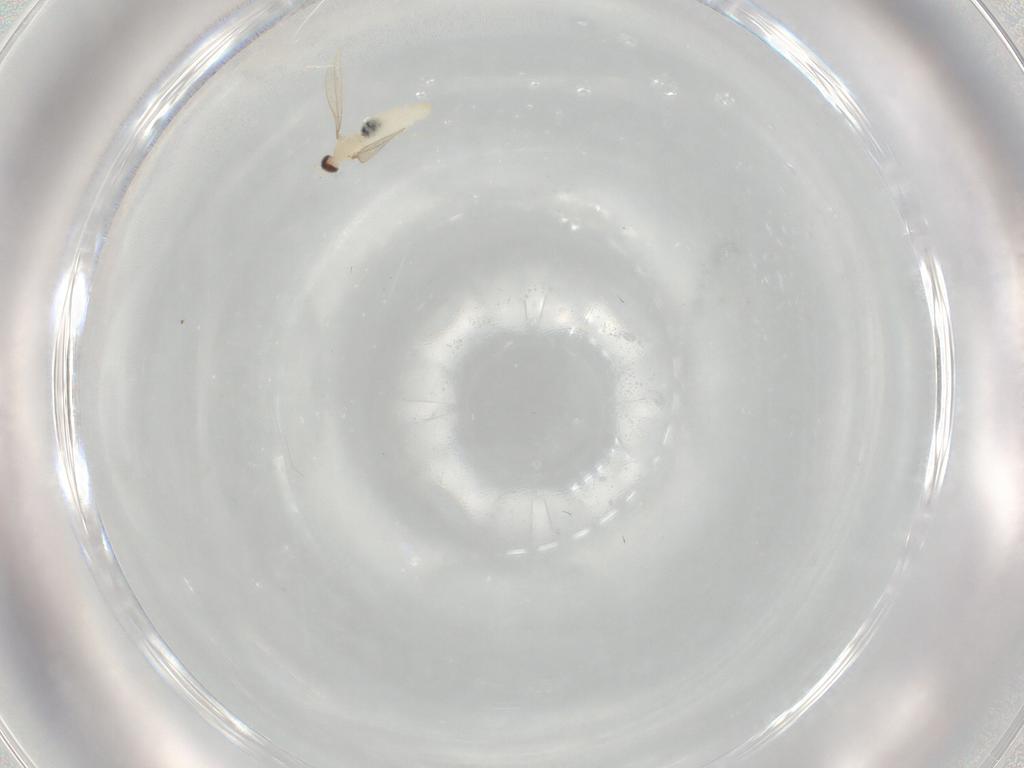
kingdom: Animalia
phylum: Arthropoda
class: Insecta
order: Diptera
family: Cecidomyiidae
